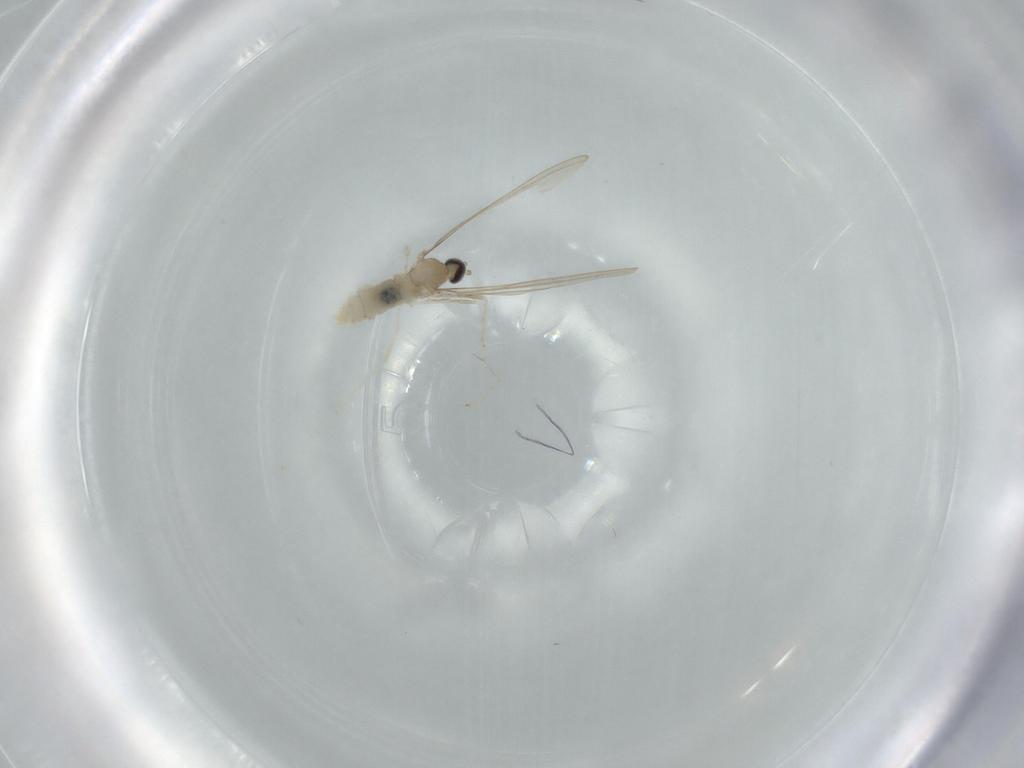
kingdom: Animalia
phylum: Arthropoda
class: Insecta
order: Diptera
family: Cecidomyiidae
